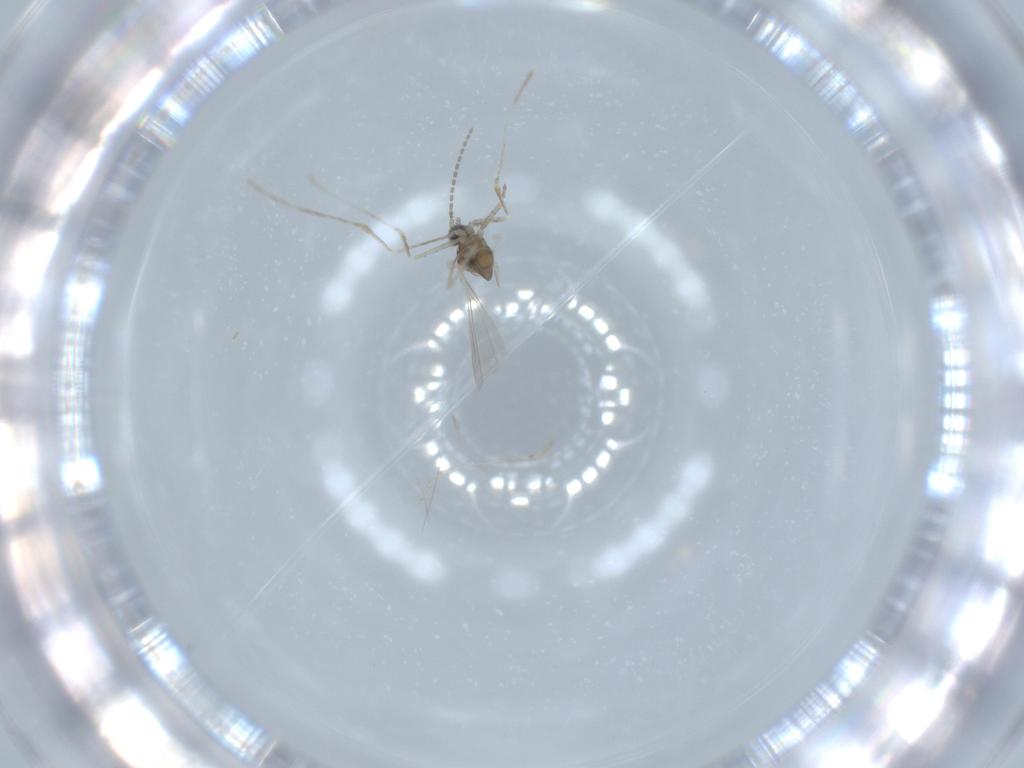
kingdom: Animalia
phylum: Arthropoda
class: Insecta
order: Diptera
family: Cecidomyiidae
